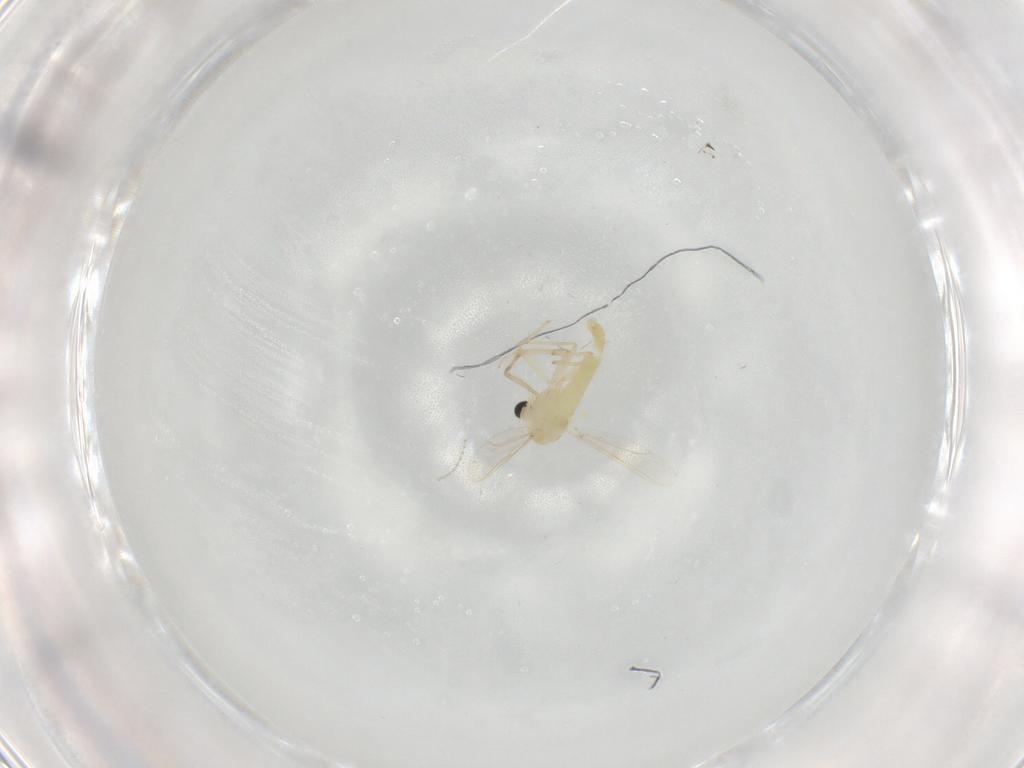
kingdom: Animalia
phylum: Arthropoda
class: Insecta
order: Diptera
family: Cecidomyiidae
